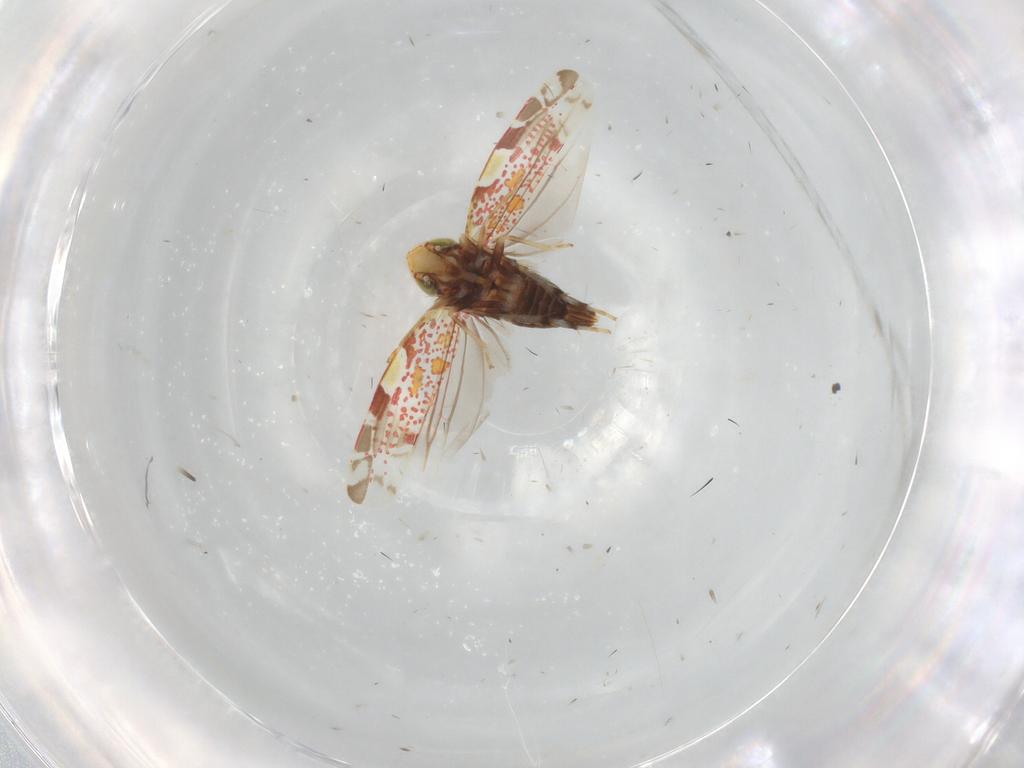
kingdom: Animalia
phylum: Arthropoda
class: Insecta
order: Hemiptera
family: Cicadellidae
